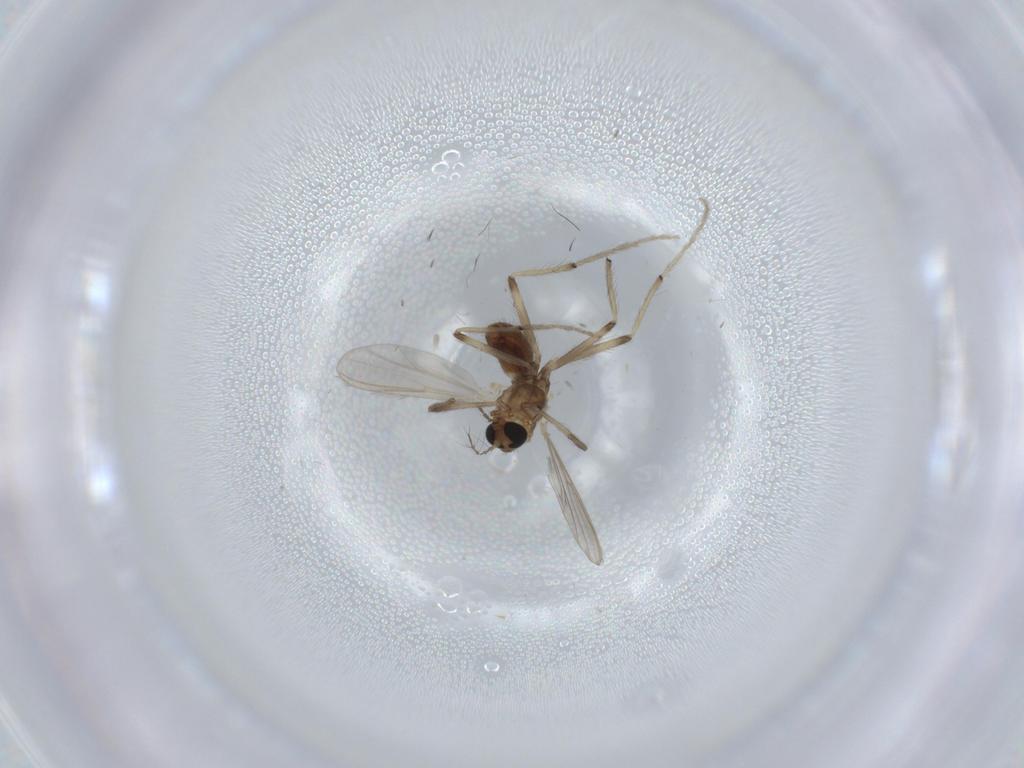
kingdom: Animalia
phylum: Arthropoda
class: Insecta
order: Diptera
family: Chironomidae
